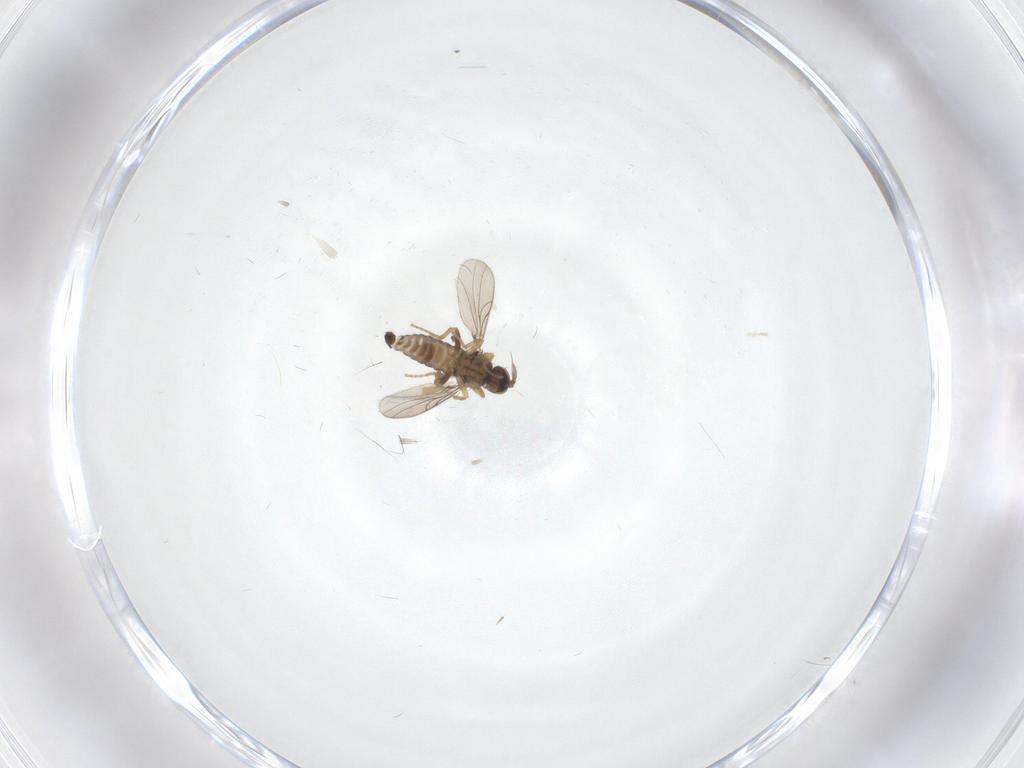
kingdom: Animalia
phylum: Arthropoda
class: Insecta
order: Diptera
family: Hybotidae
